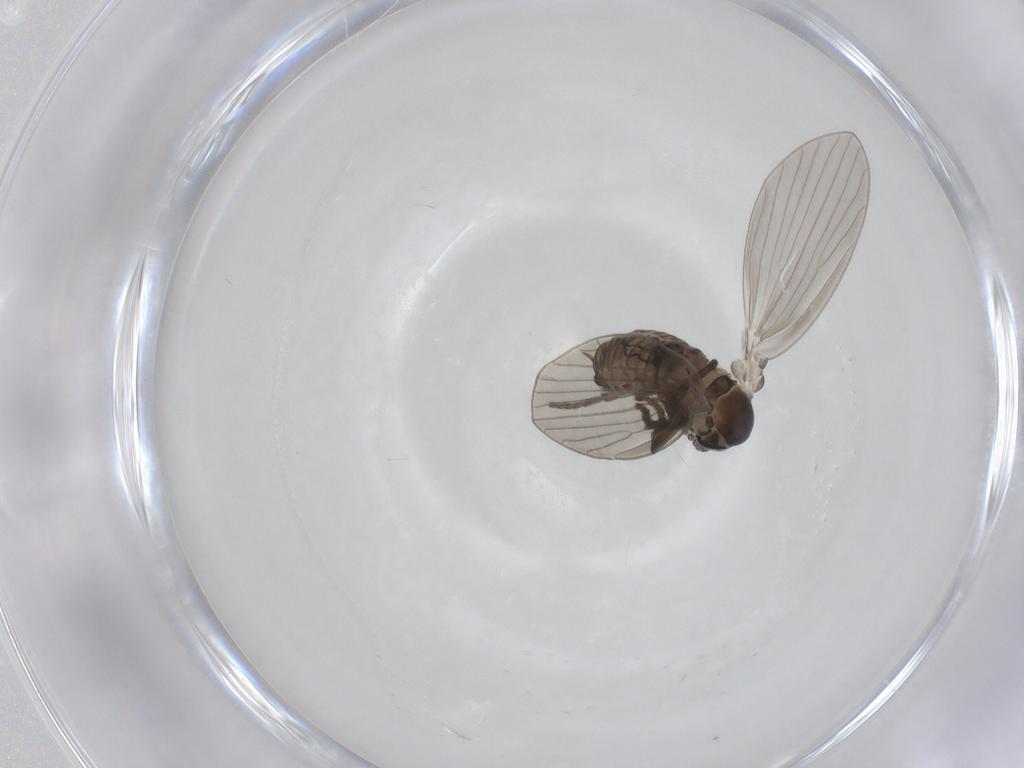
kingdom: Animalia
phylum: Arthropoda
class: Insecta
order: Diptera
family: Psychodidae
